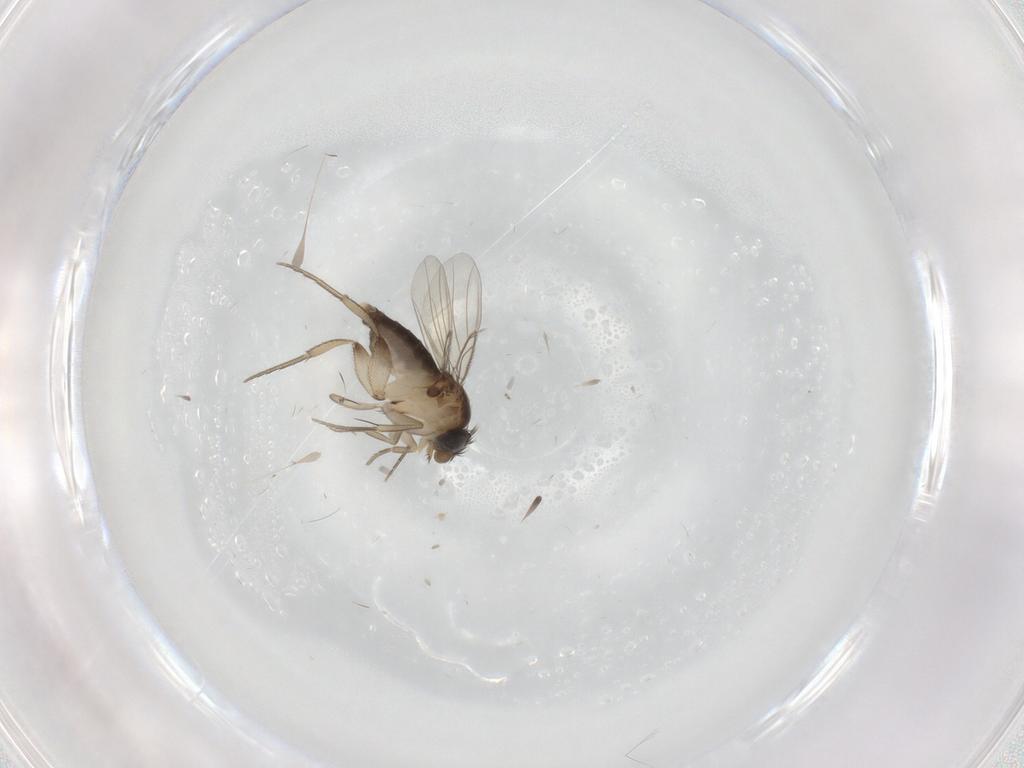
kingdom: Animalia
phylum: Arthropoda
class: Insecta
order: Diptera
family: Phoridae
